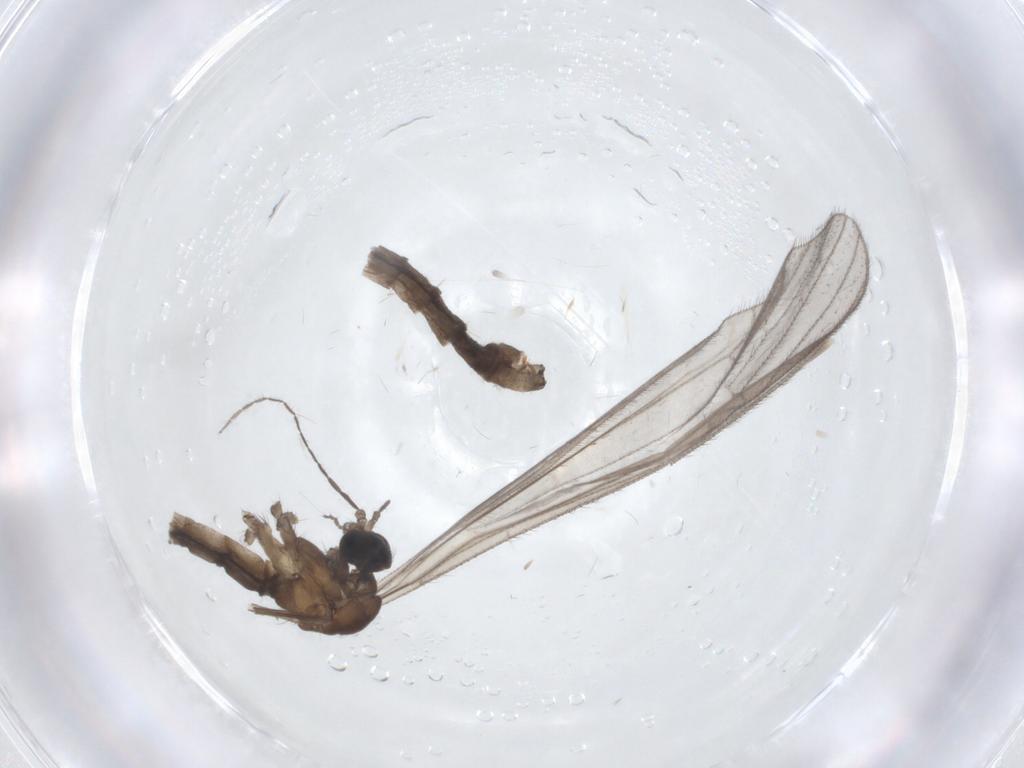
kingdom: Animalia
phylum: Arthropoda
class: Insecta
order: Diptera
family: Limoniidae
